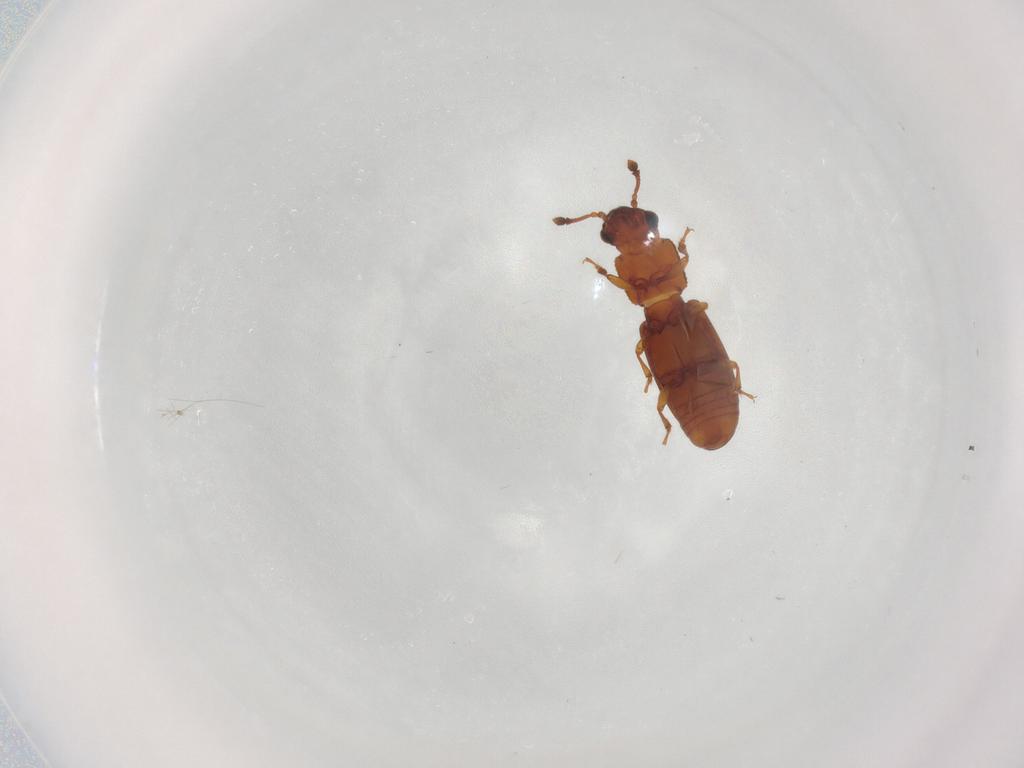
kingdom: Animalia
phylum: Arthropoda
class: Insecta
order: Coleoptera
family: Monotomidae
